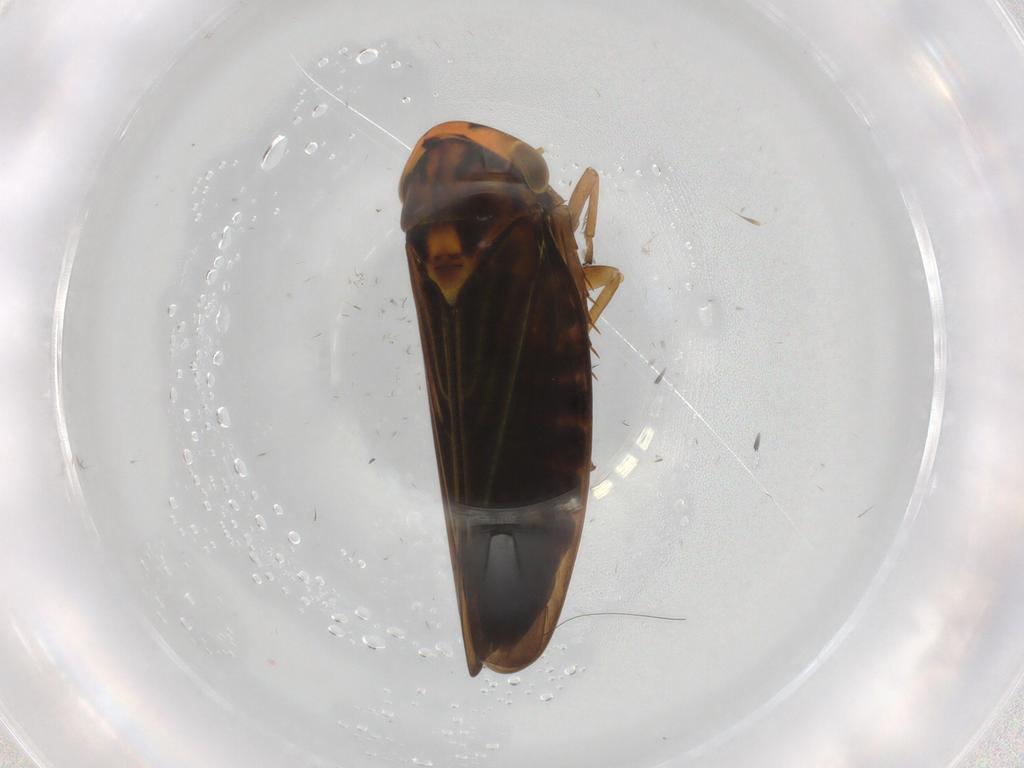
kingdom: Animalia
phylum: Arthropoda
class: Insecta
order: Hemiptera
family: Cicadellidae
